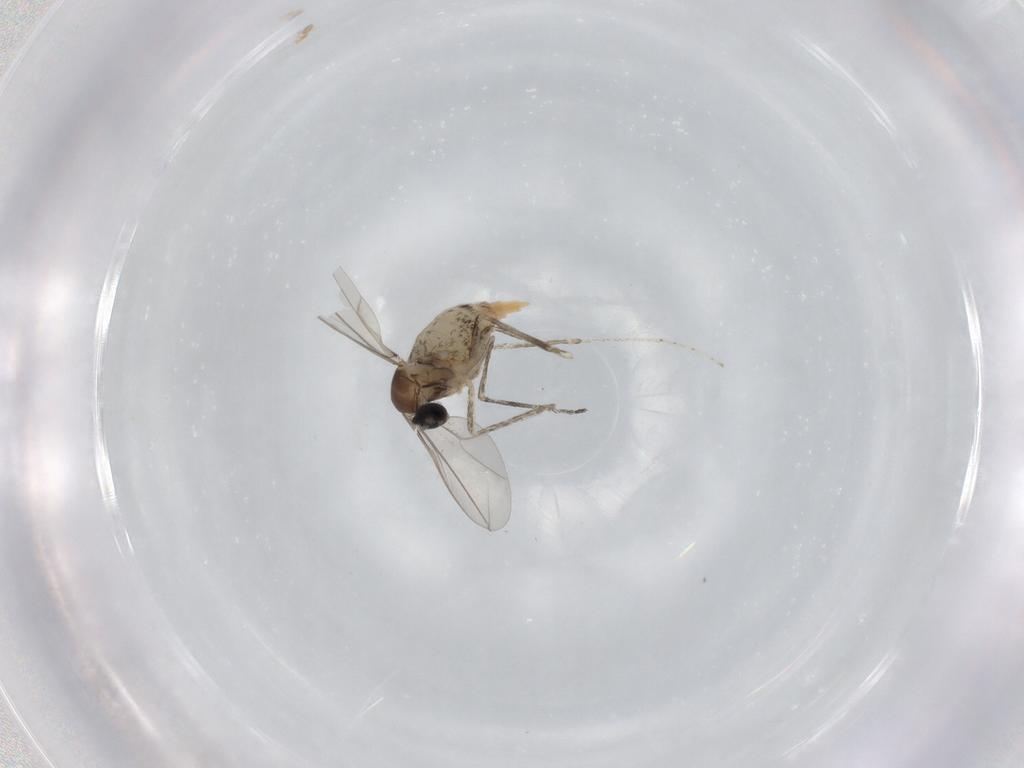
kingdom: Animalia
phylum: Arthropoda
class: Insecta
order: Diptera
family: Cecidomyiidae
